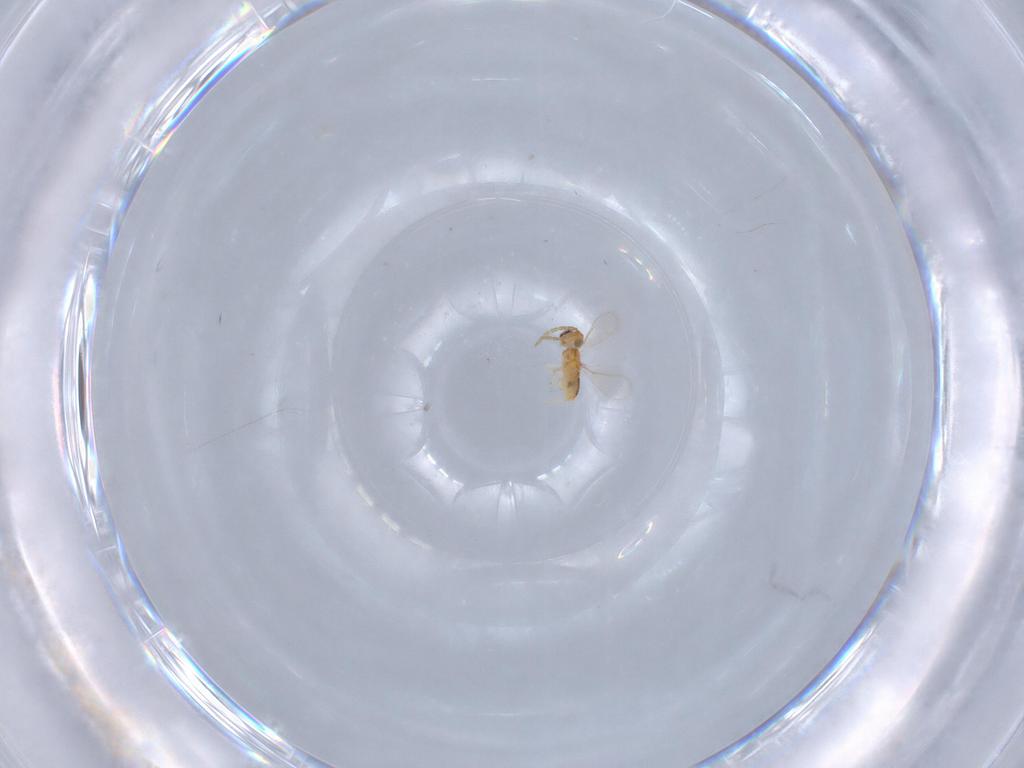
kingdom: Animalia
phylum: Arthropoda
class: Insecta
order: Hymenoptera
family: Aphelinidae
